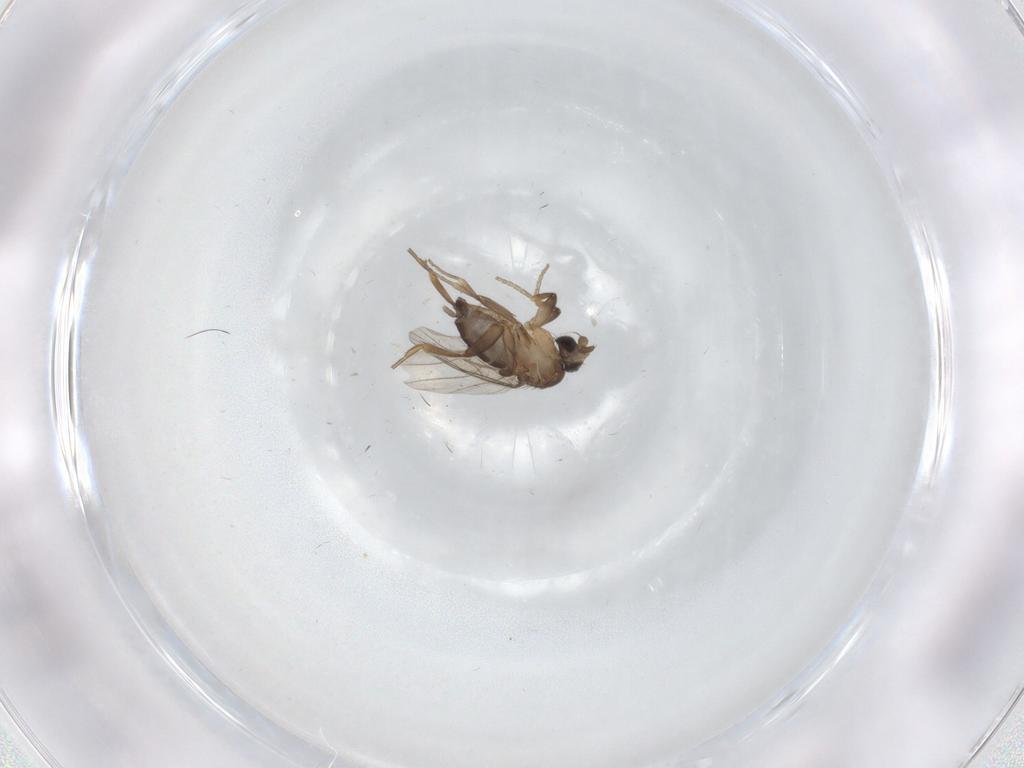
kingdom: Animalia
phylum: Arthropoda
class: Insecta
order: Diptera
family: Phoridae
